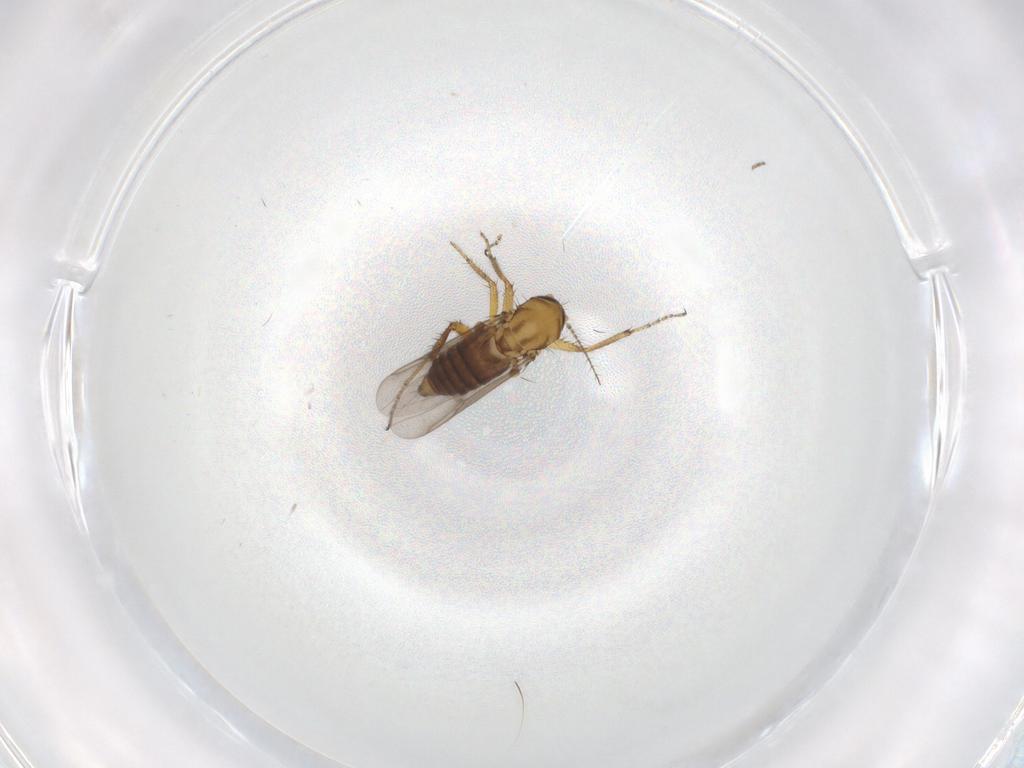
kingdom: Animalia
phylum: Arthropoda
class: Insecta
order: Diptera
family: Ceratopogonidae
